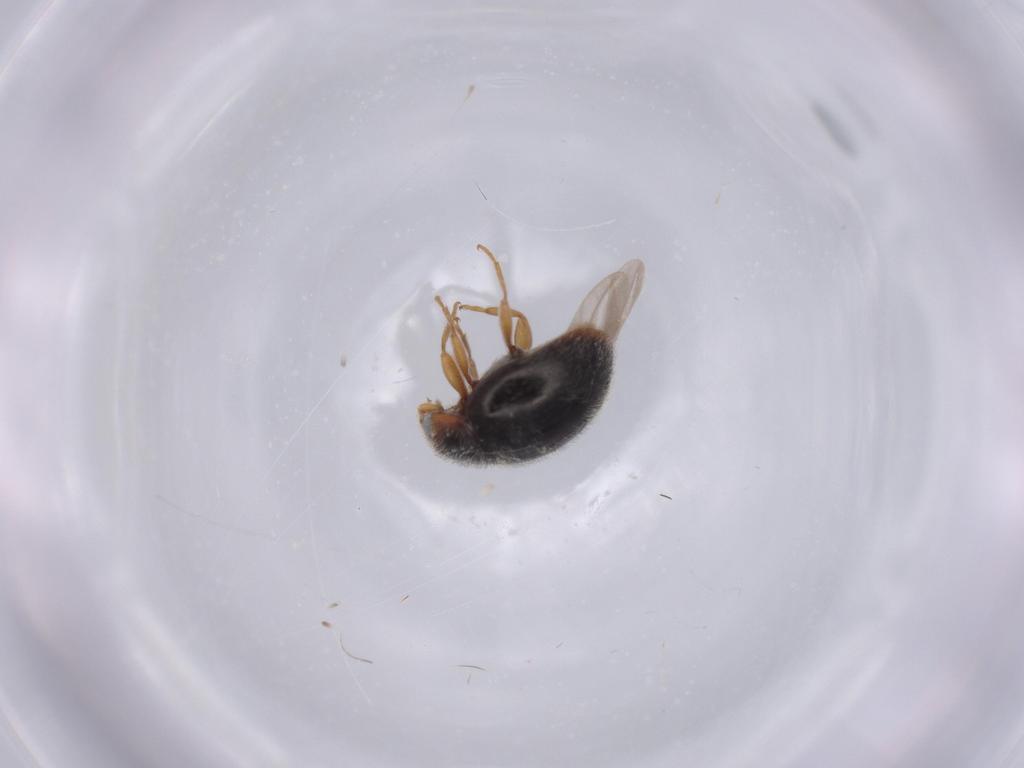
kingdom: Animalia
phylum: Arthropoda
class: Insecta
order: Coleoptera
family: Coccinellidae
